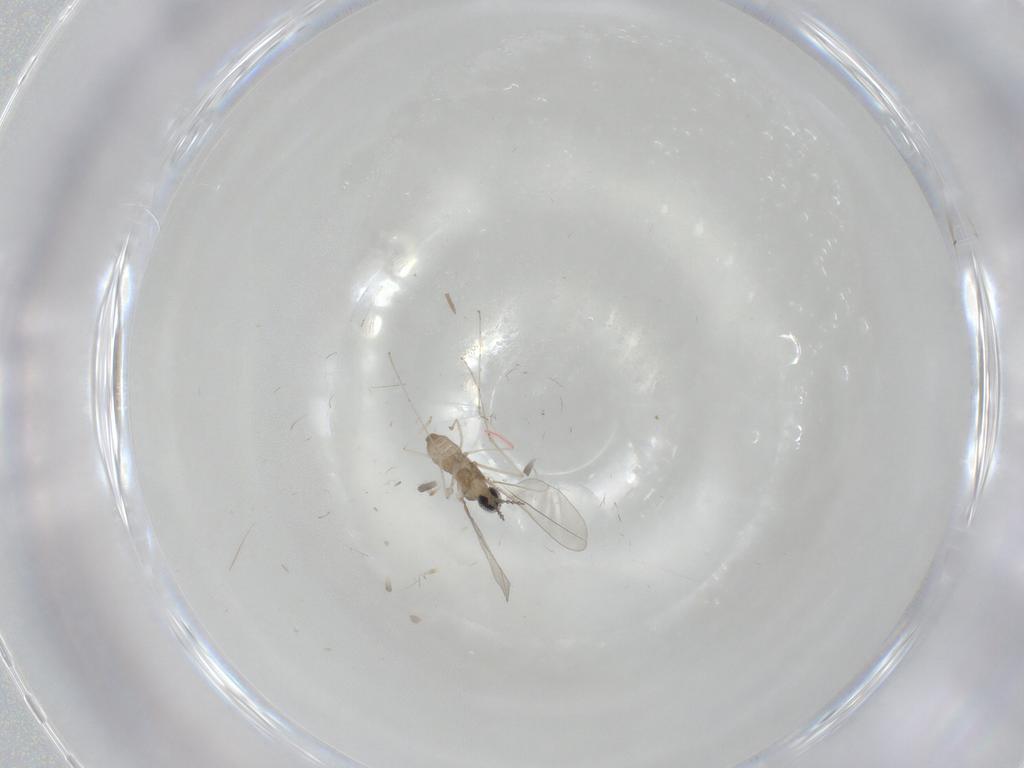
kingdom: Animalia
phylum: Arthropoda
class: Insecta
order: Diptera
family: Cecidomyiidae
